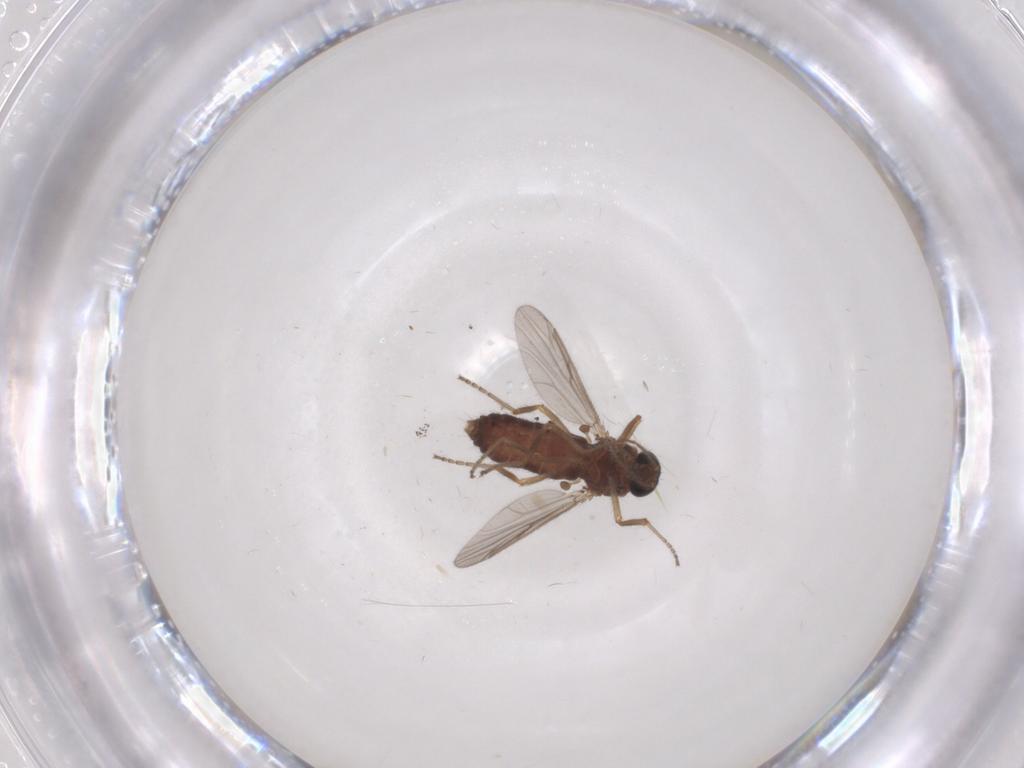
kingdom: Animalia
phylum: Arthropoda
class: Insecta
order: Diptera
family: Ceratopogonidae
